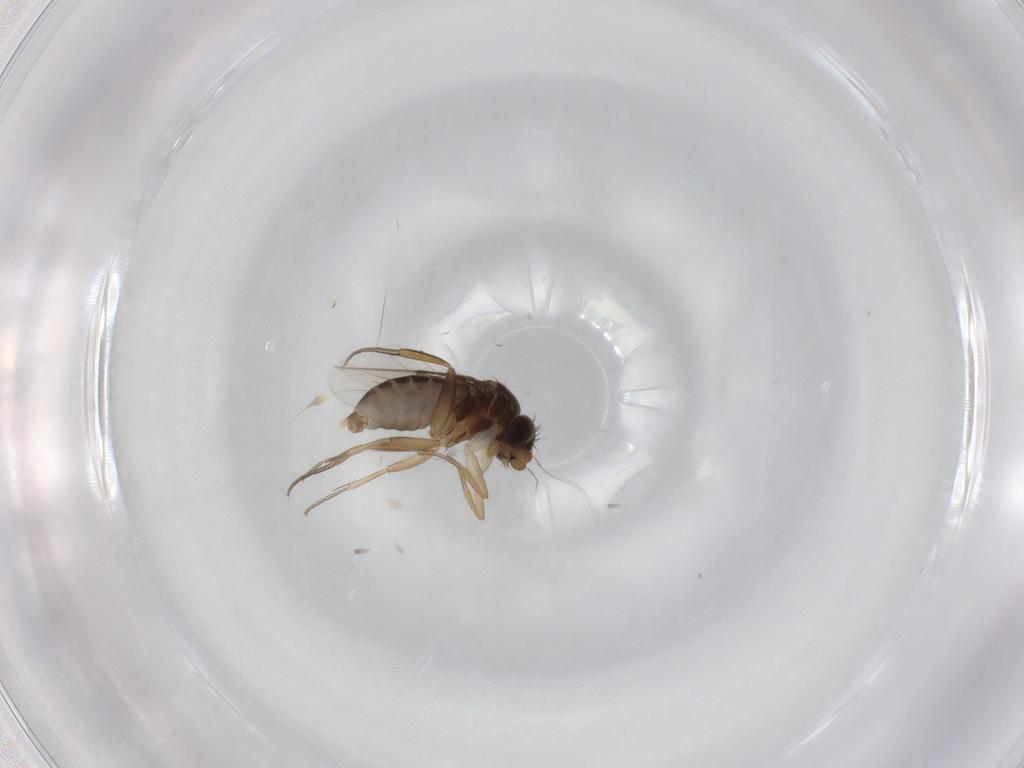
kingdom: Animalia
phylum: Arthropoda
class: Insecta
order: Diptera
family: Phoridae
